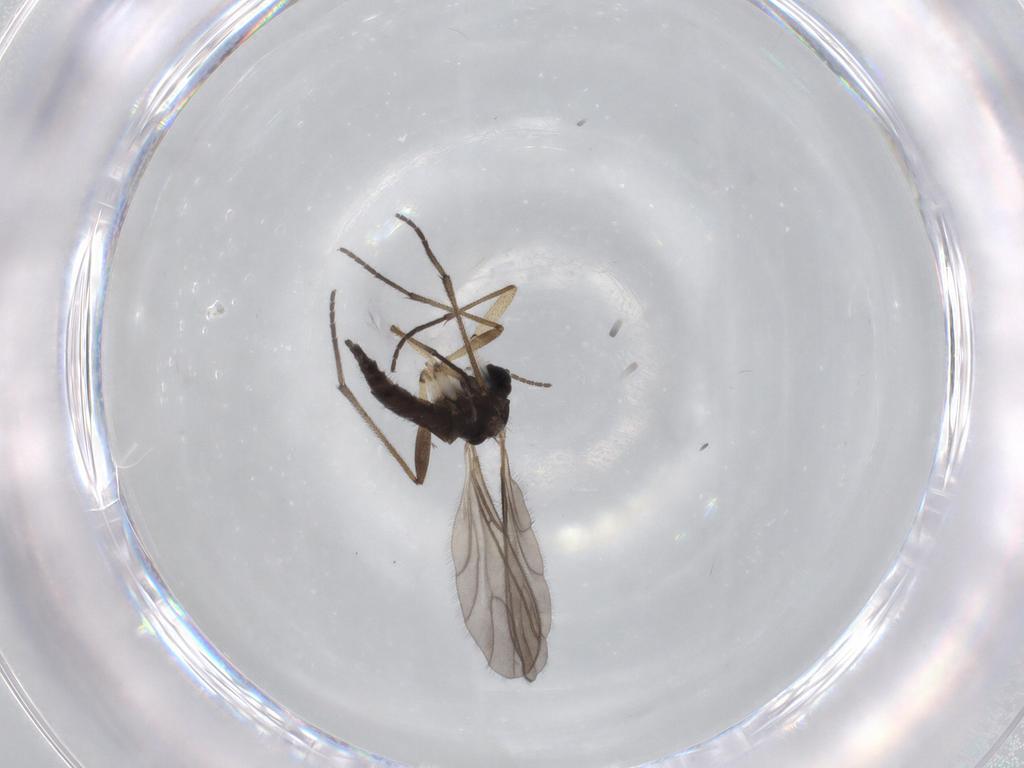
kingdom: Animalia
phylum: Arthropoda
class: Insecta
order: Diptera
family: Sciaridae
